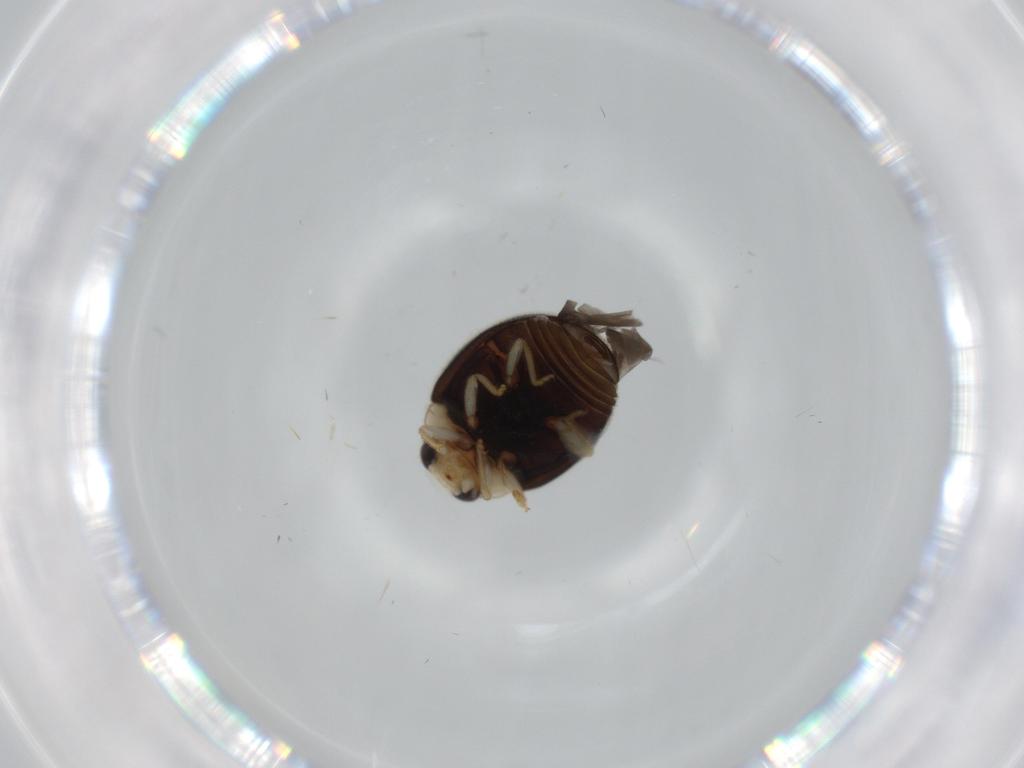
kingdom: Animalia
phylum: Arthropoda
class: Insecta
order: Coleoptera
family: Coccinellidae
